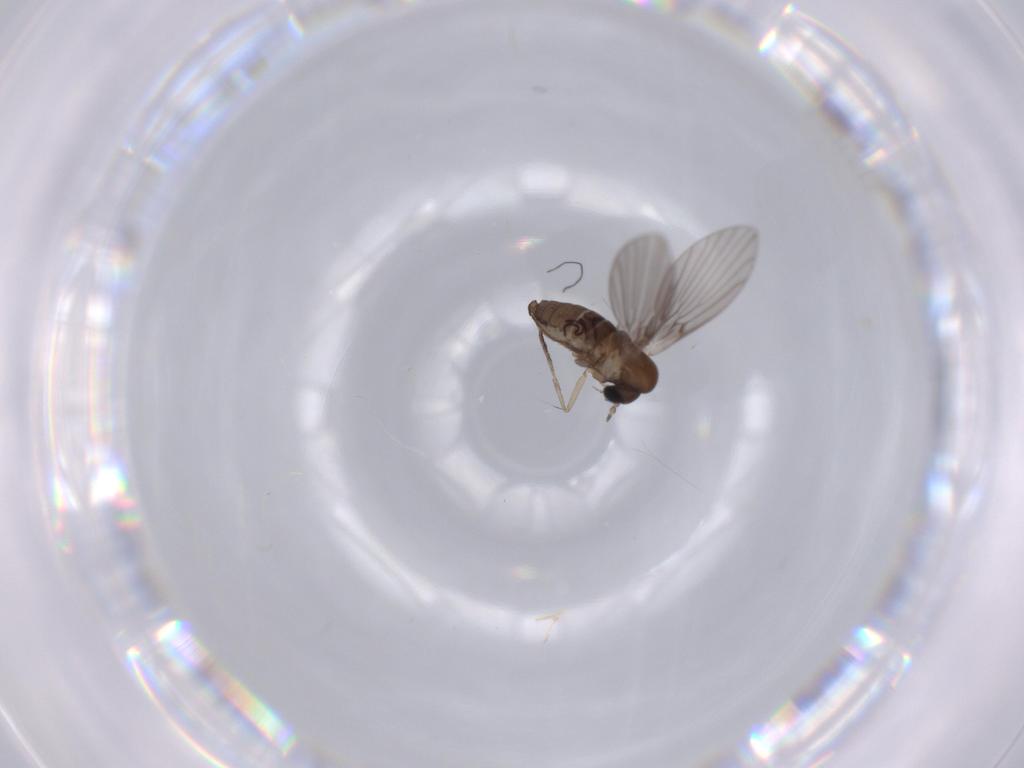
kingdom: Animalia
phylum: Arthropoda
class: Insecta
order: Diptera
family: Psychodidae
